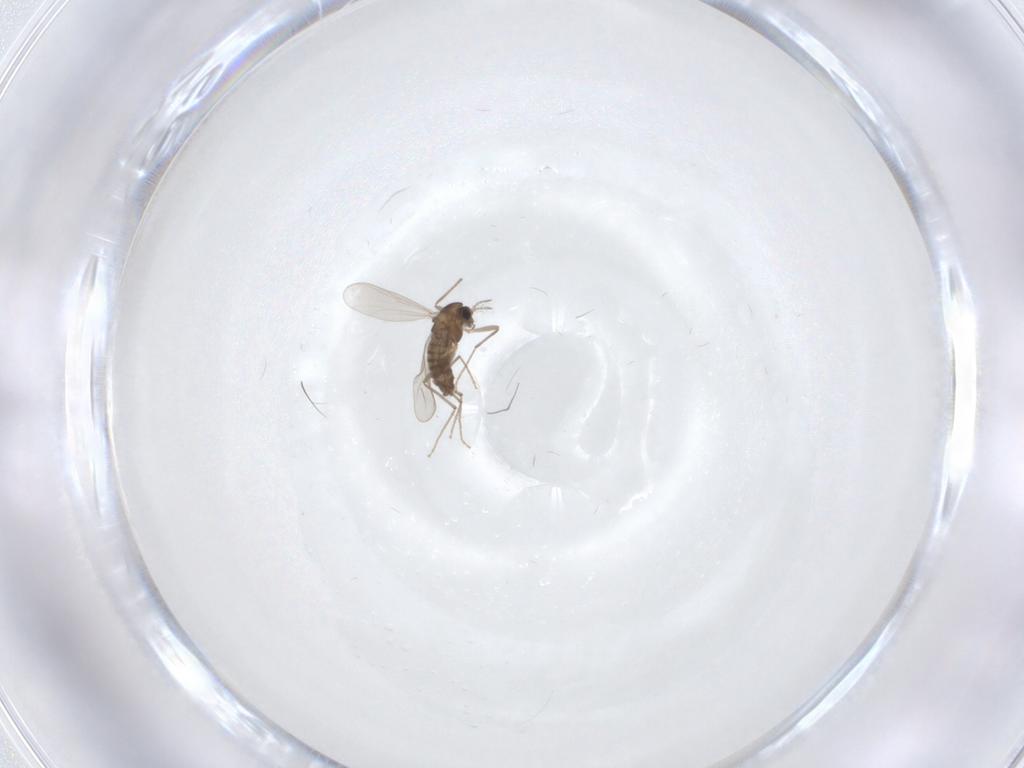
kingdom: Animalia
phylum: Arthropoda
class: Insecta
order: Diptera
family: Chironomidae
